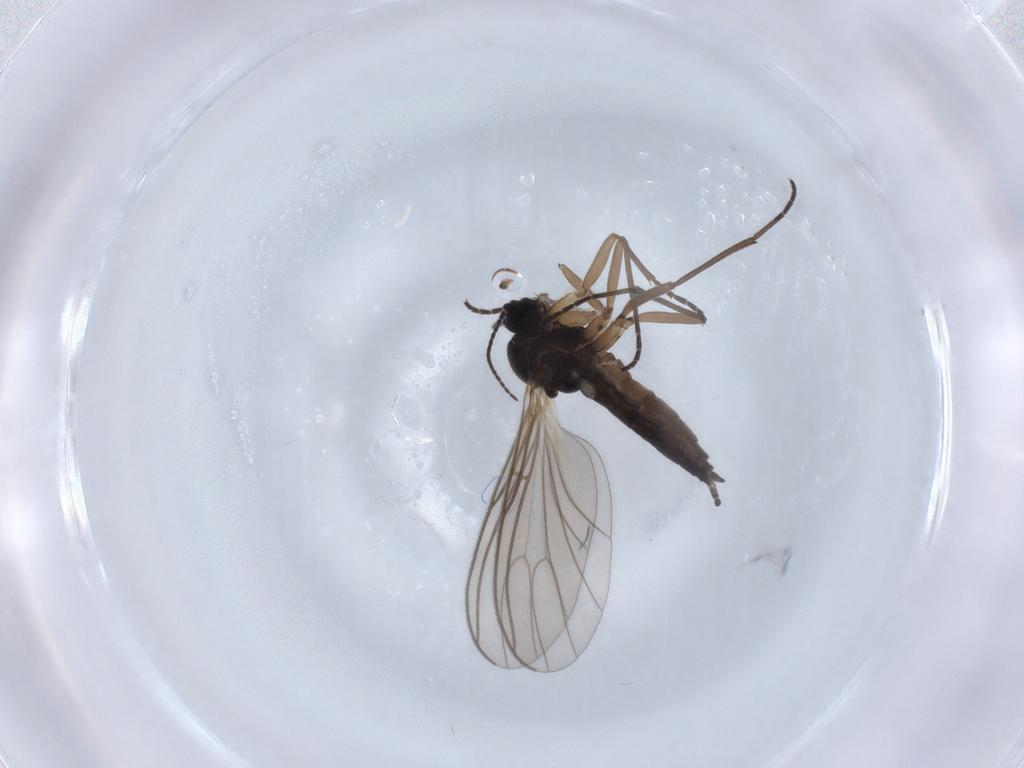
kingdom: Animalia
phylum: Arthropoda
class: Insecta
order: Diptera
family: Sciaridae
